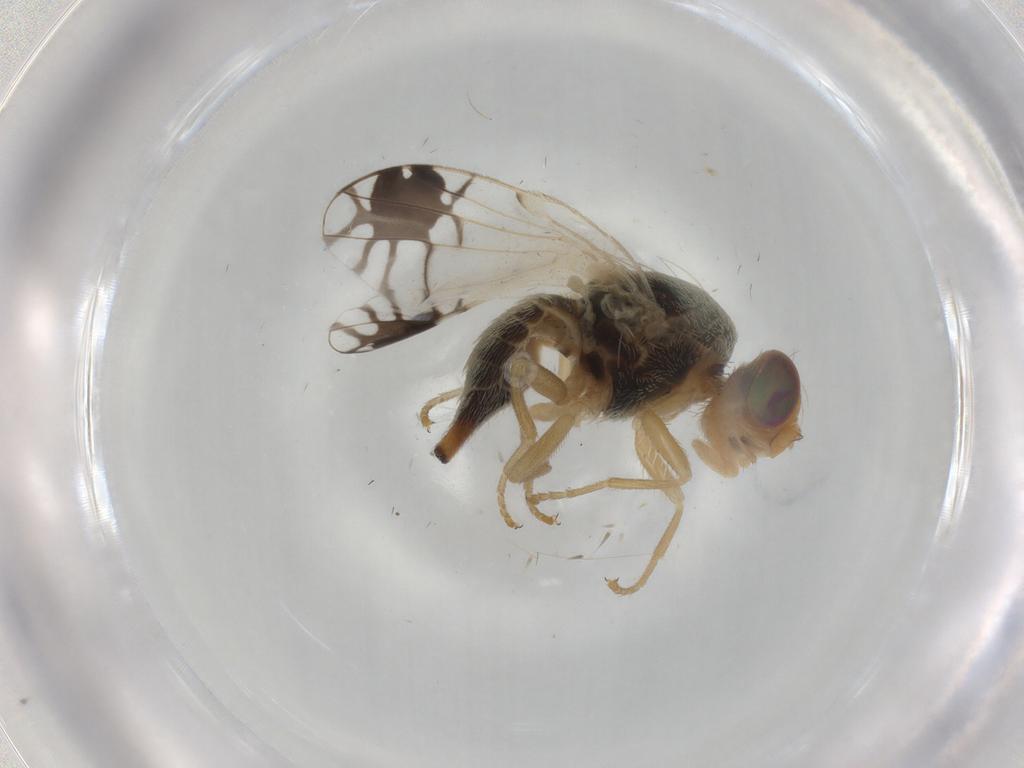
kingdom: Animalia
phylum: Arthropoda
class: Insecta
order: Diptera
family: Tephritidae
